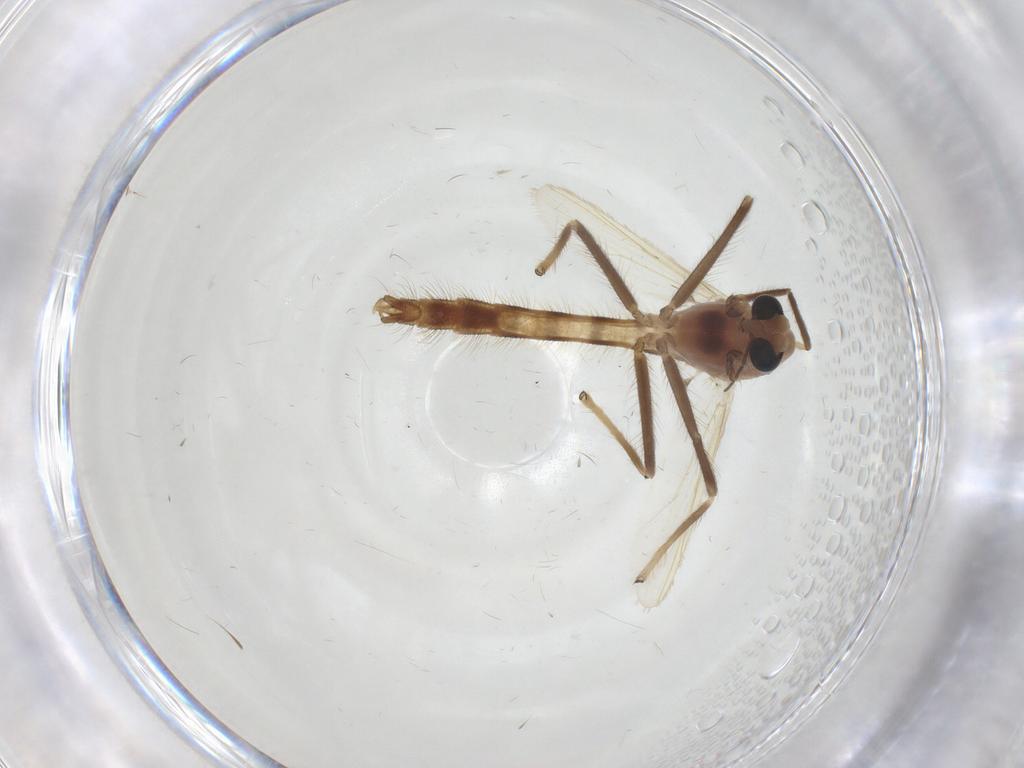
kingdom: Animalia
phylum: Arthropoda
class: Insecta
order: Diptera
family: Chironomidae
